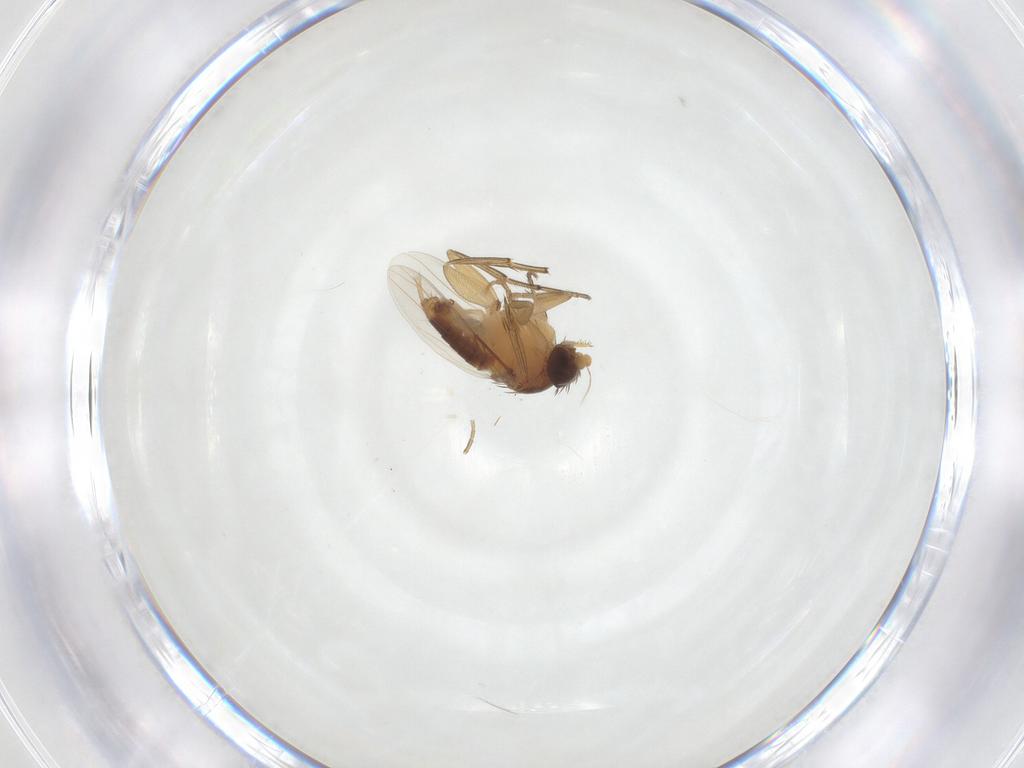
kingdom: Animalia
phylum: Arthropoda
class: Insecta
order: Diptera
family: Phoridae
